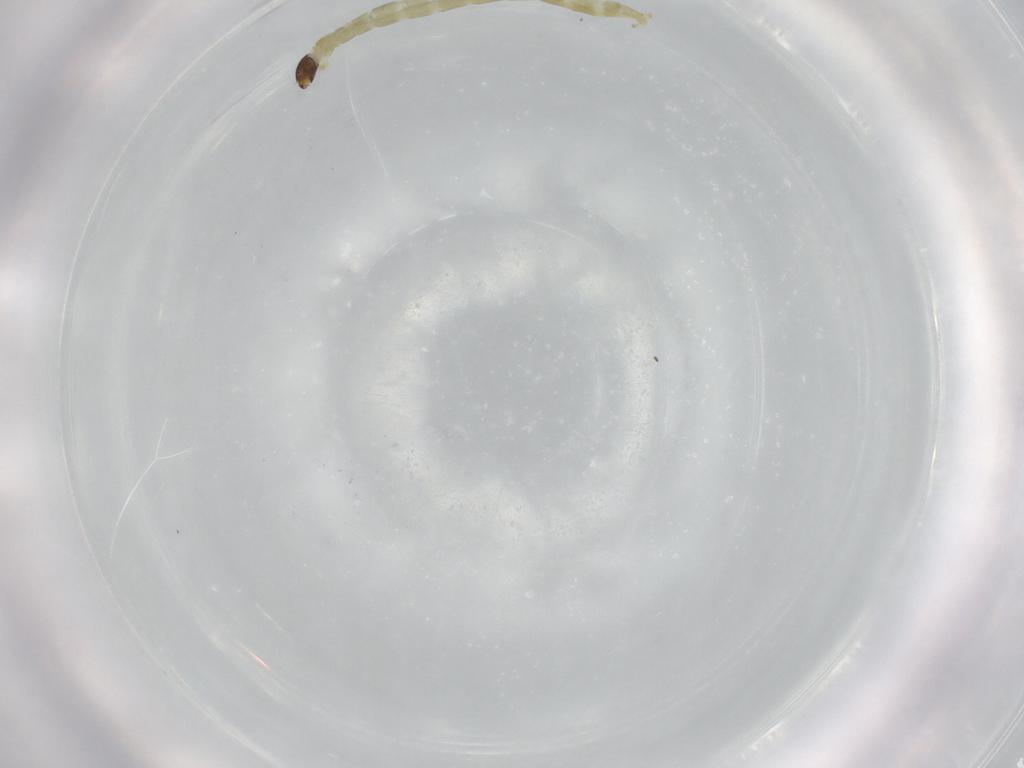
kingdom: Animalia
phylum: Arthropoda
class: Insecta
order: Diptera
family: Chironomidae
